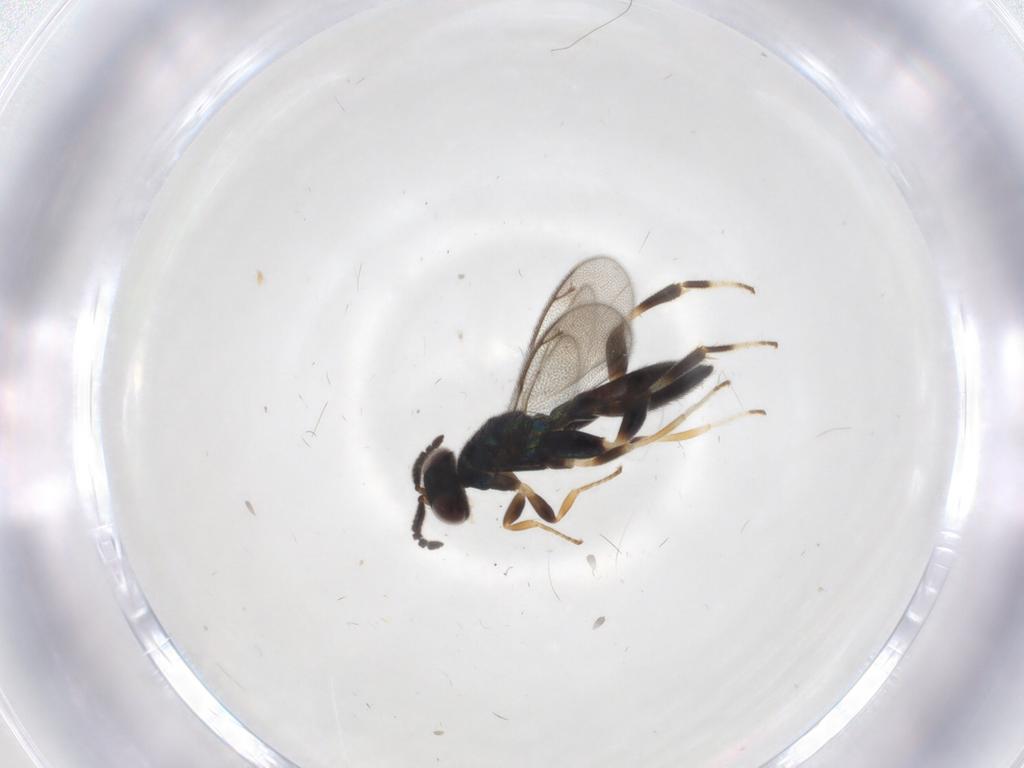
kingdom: Animalia
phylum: Arthropoda
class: Insecta
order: Hymenoptera
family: Cleonyminae
